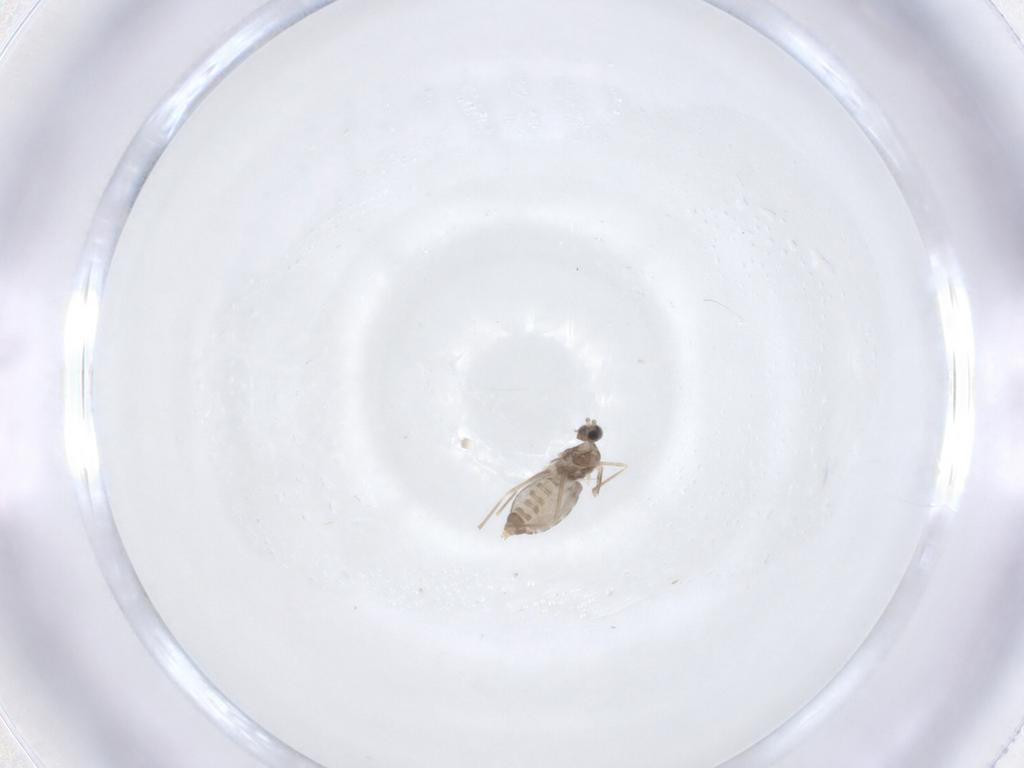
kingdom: Animalia
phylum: Arthropoda
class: Insecta
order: Diptera
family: Cecidomyiidae
